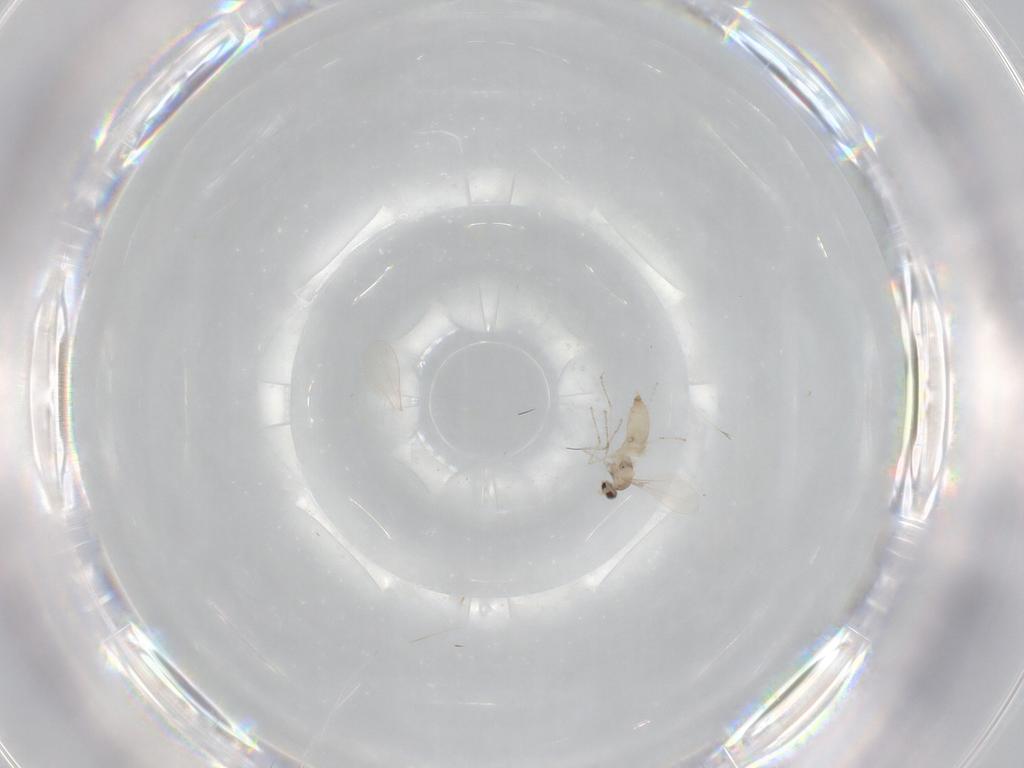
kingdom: Animalia
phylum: Arthropoda
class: Insecta
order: Diptera
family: Cecidomyiidae
